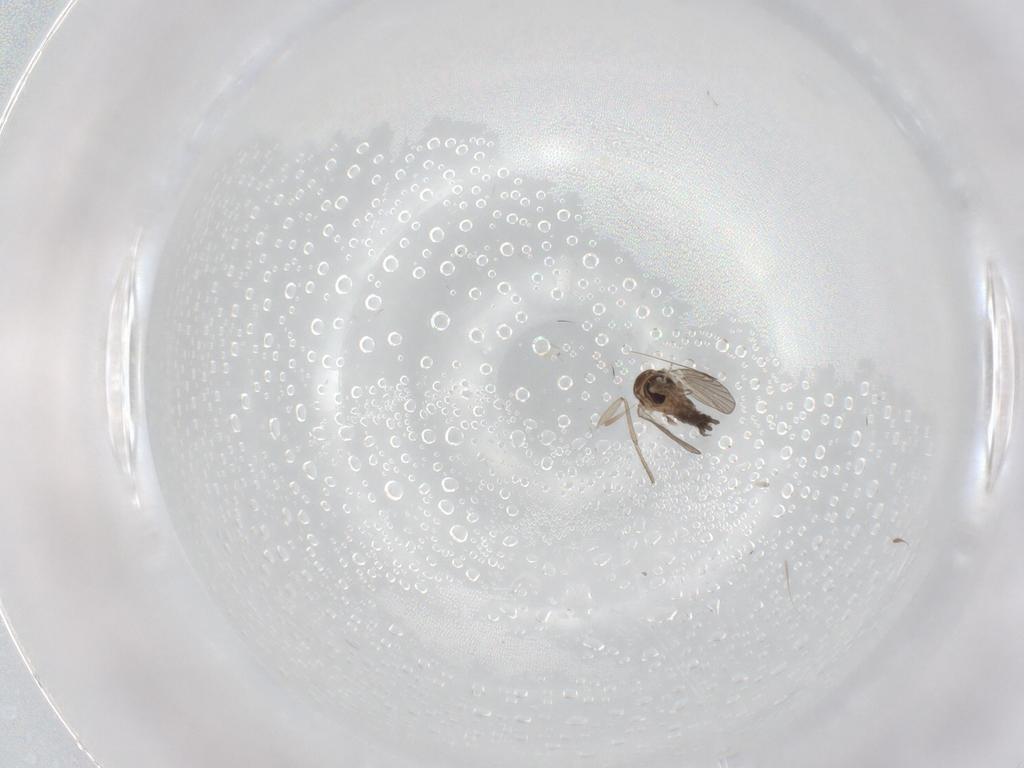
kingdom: Animalia
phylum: Arthropoda
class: Insecta
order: Diptera
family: Psychodidae
